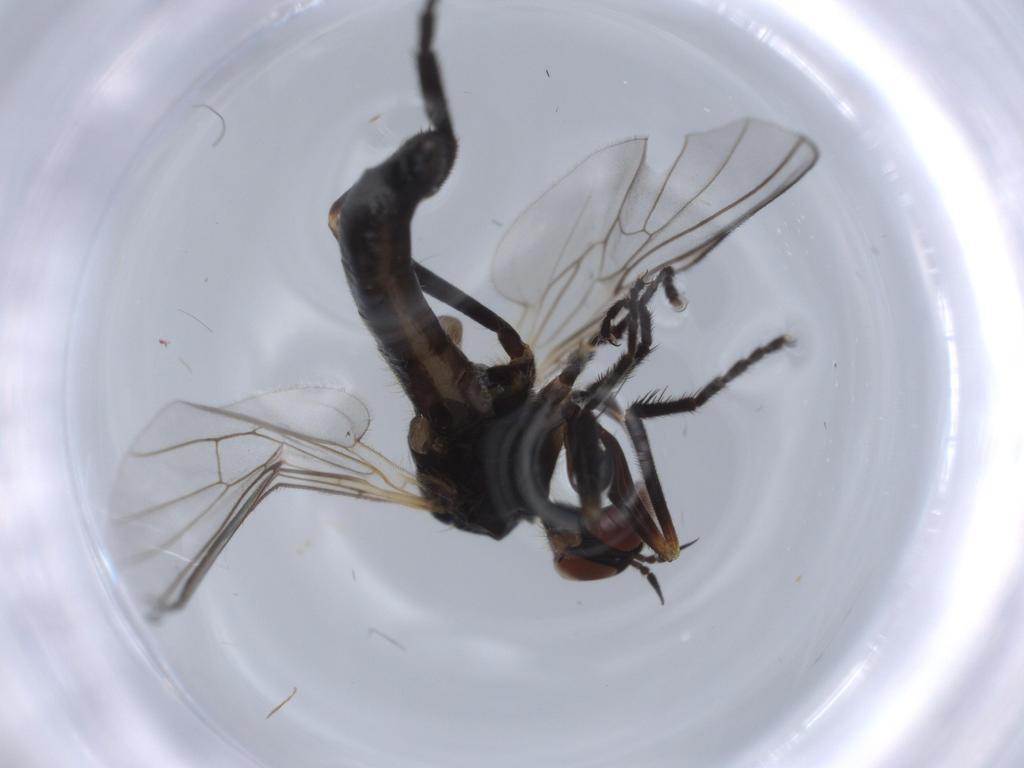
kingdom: Animalia
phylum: Arthropoda
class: Insecta
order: Diptera
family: Empididae
